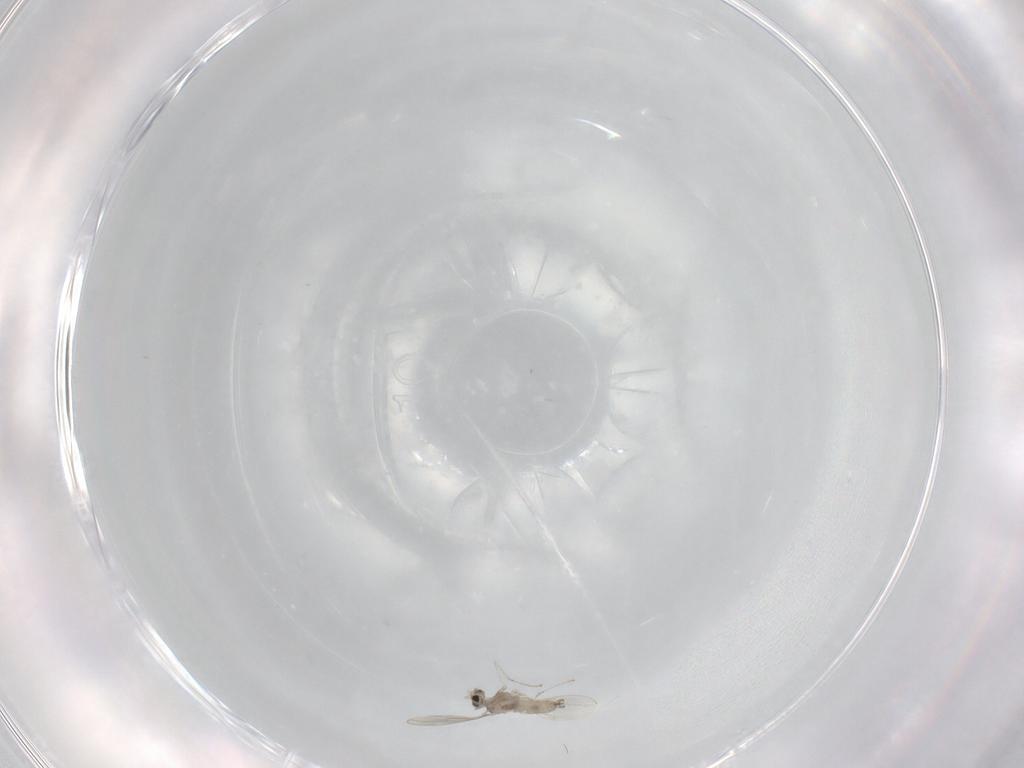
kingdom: Animalia
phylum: Arthropoda
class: Insecta
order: Diptera
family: Cecidomyiidae
